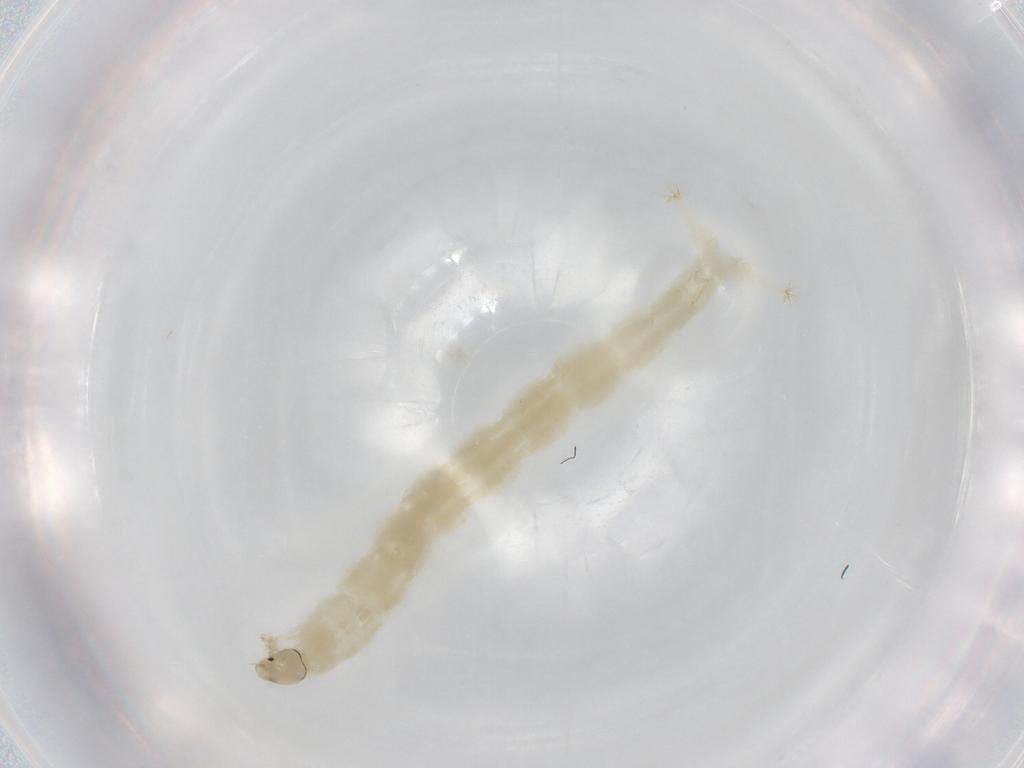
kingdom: Animalia
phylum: Arthropoda
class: Insecta
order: Diptera
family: Chironomidae
